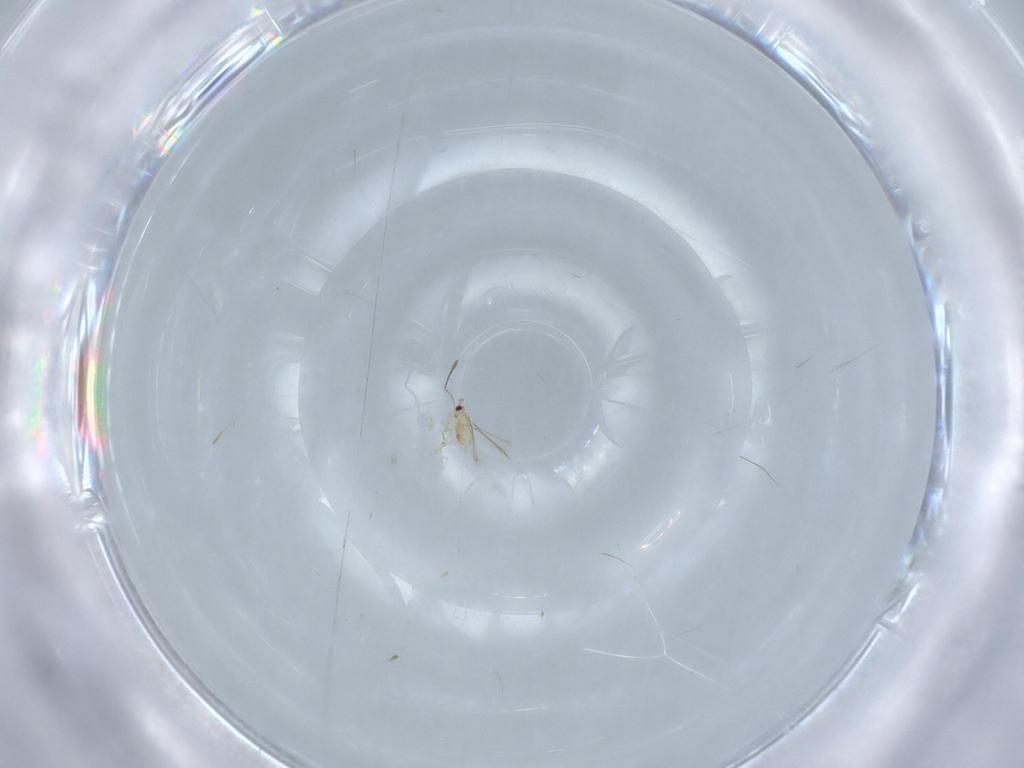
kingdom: Animalia
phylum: Arthropoda
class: Insecta
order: Hymenoptera
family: Mymaridae
